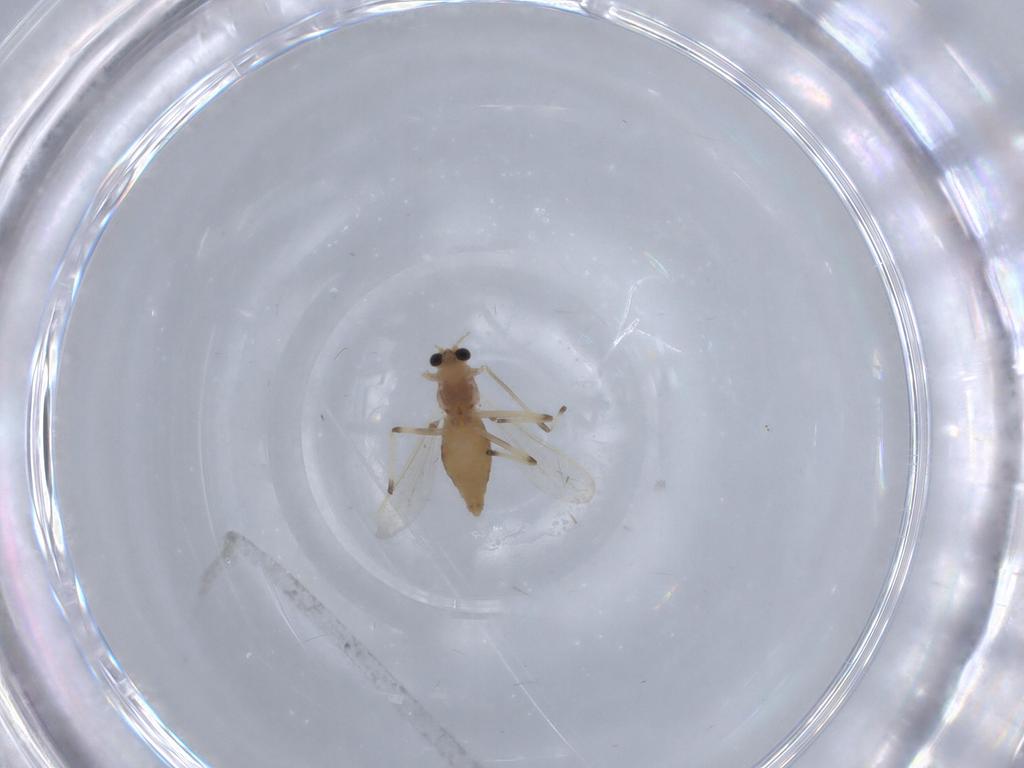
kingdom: Animalia
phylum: Arthropoda
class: Insecta
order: Diptera
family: Chironomidae
